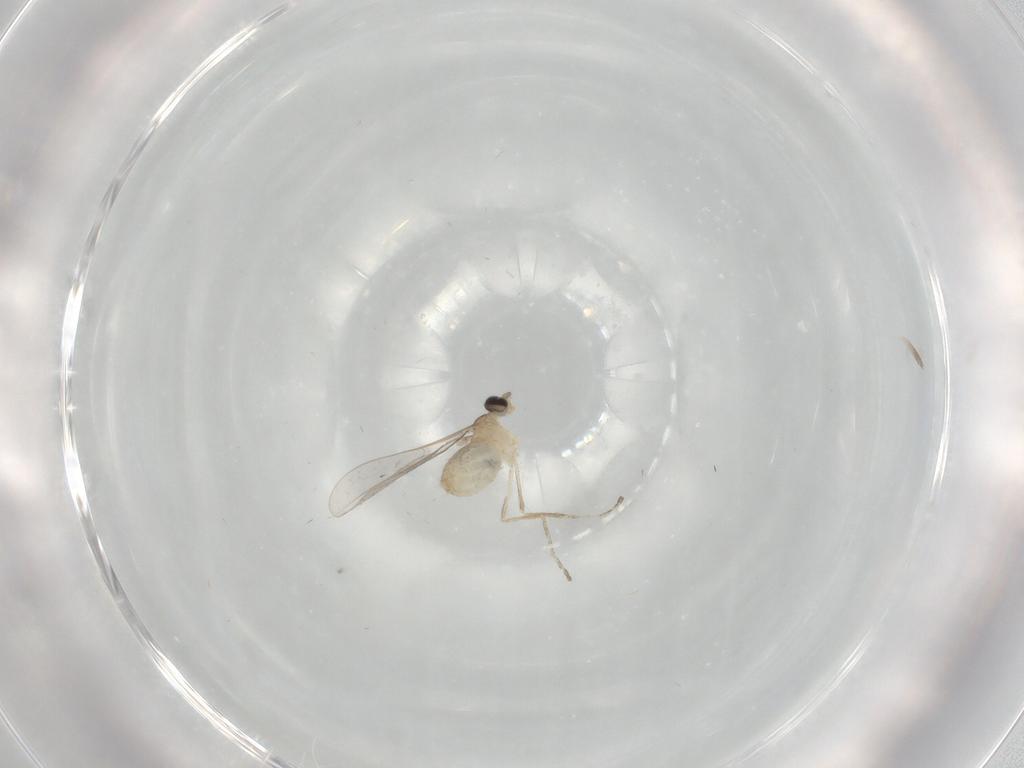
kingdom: Animalia
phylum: Arthropoda
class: Insecta
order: Diptera
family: Cecidomyiidae
